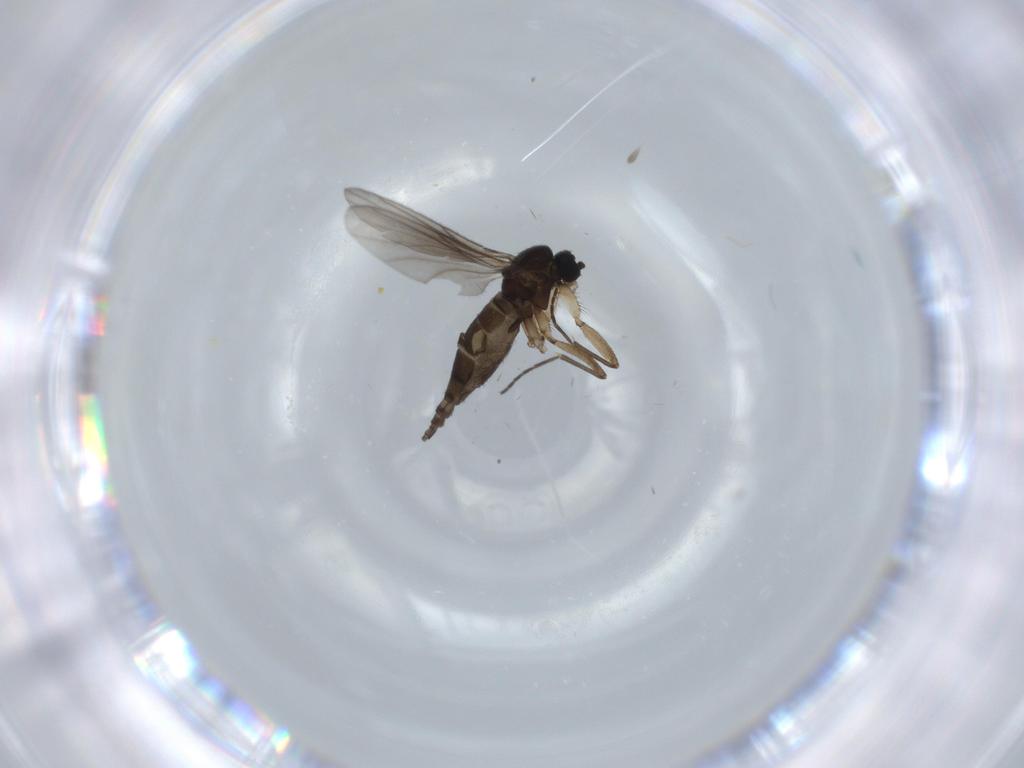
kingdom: Animalia
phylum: Arthropoda
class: Insecta
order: Diptera
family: Sciaridae
